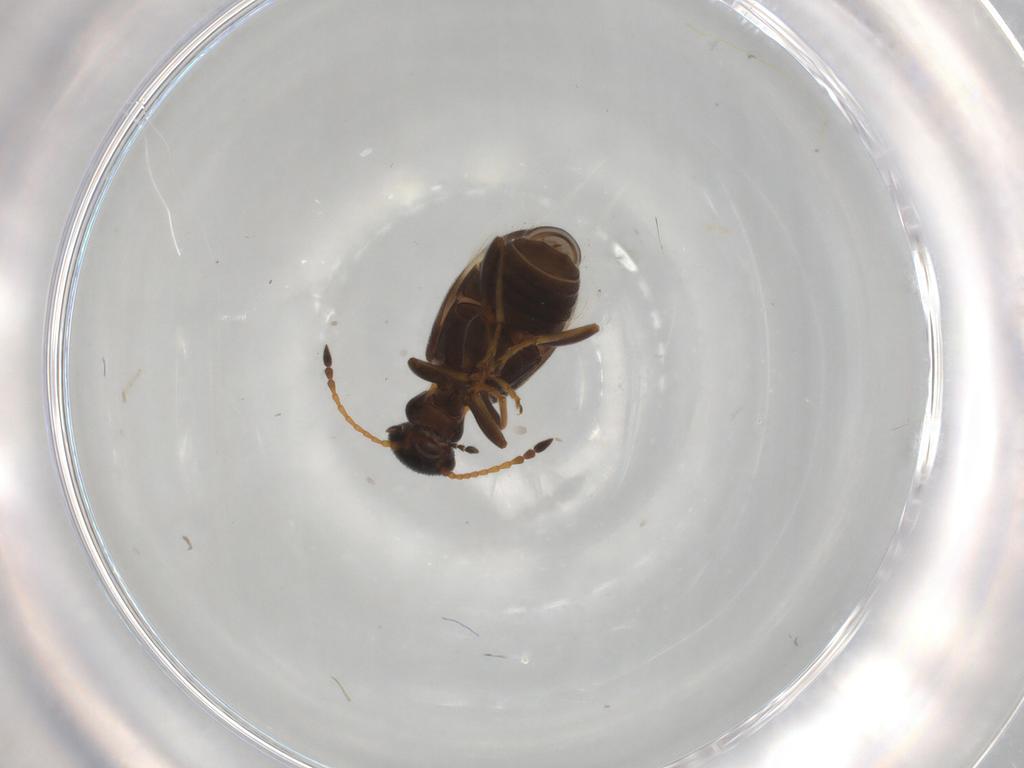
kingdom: Animalia
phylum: Arthropoda
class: Insecta
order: Coleoptera
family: Anthicidae
